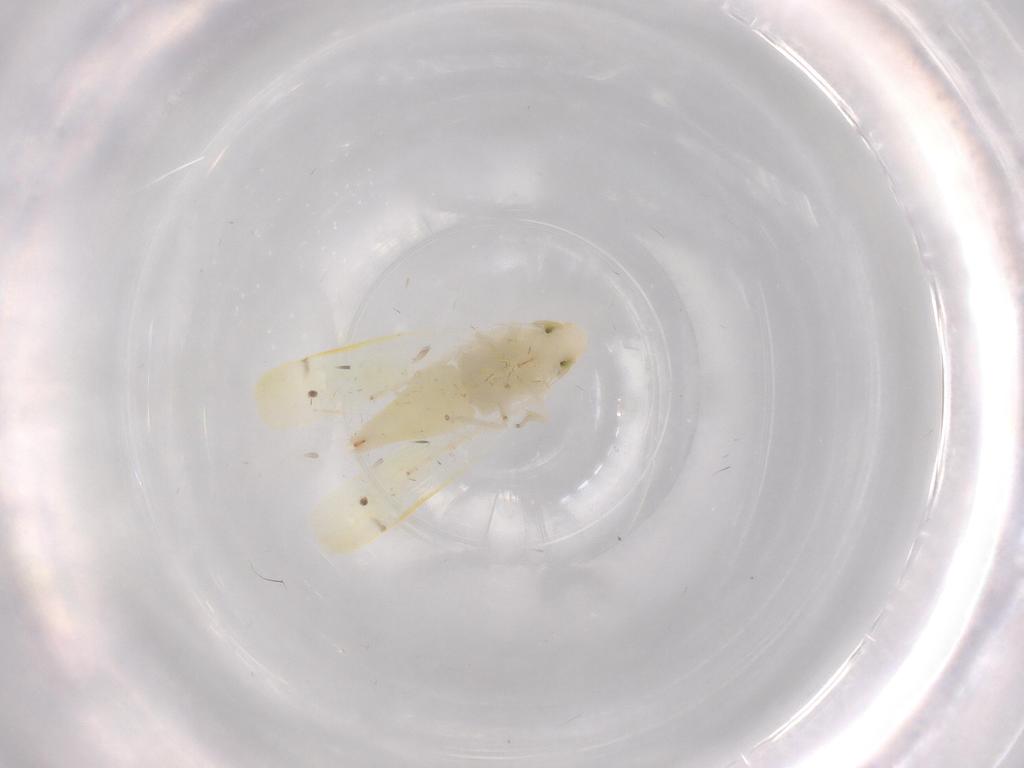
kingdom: Animalia
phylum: Arthropoda
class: Insecta
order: Hemiptera
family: Cicadellidae
